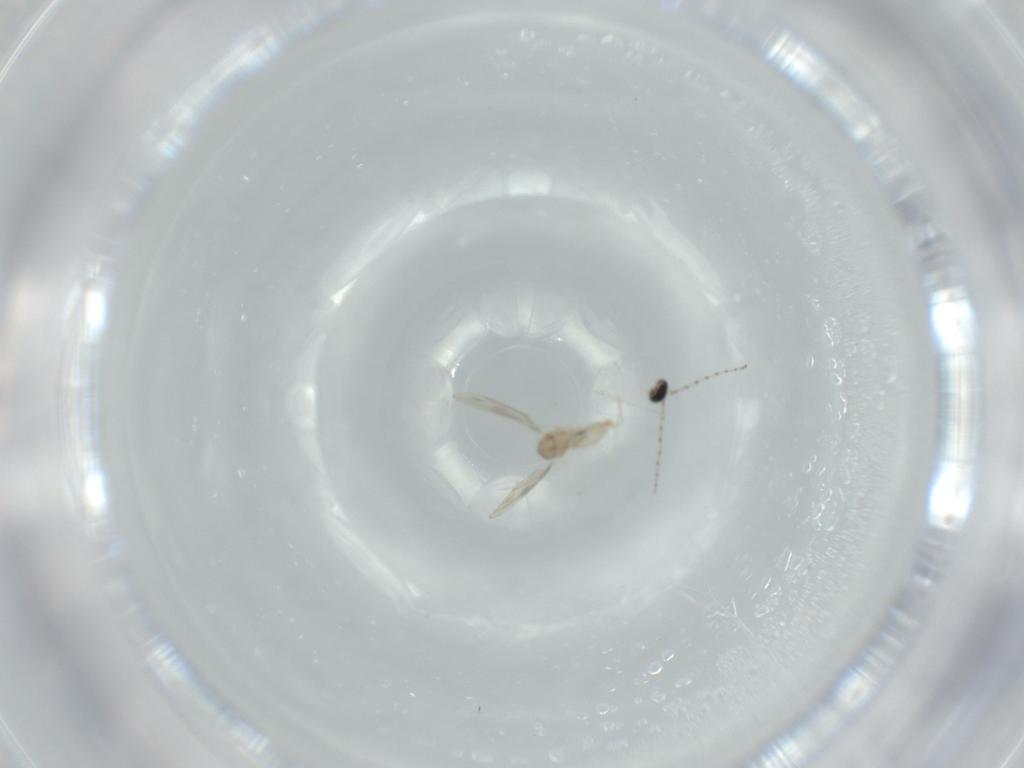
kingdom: Animalia
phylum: Arthropoda
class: Insecta
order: Diptera
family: Cecidomyiidae
